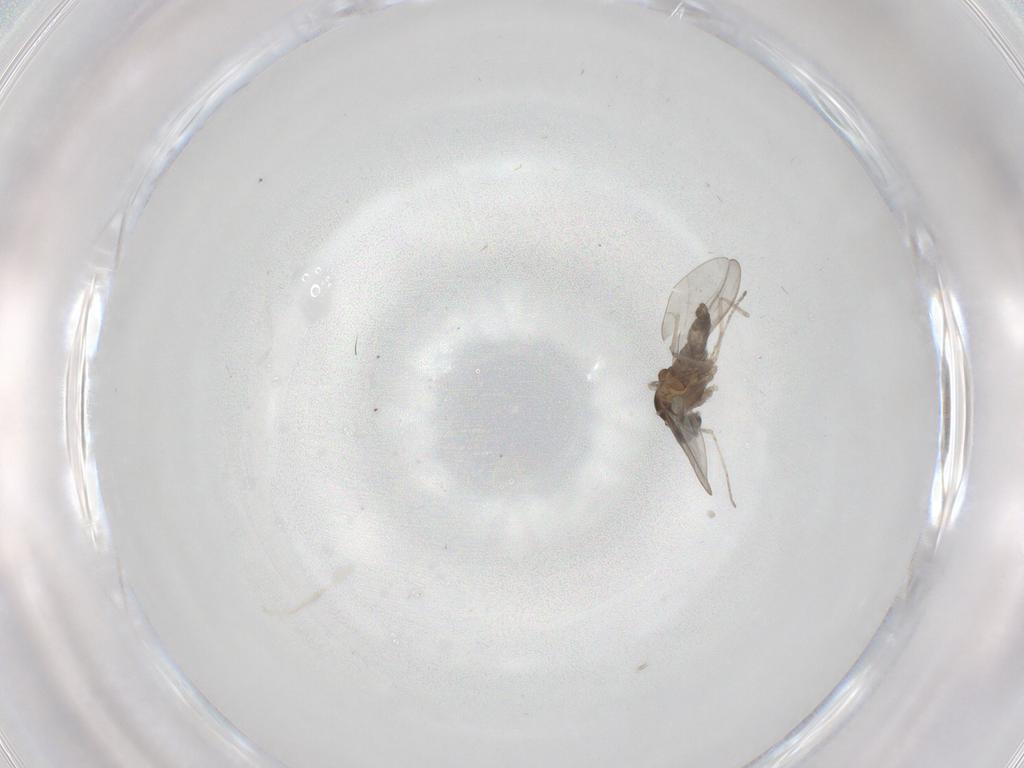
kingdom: Animalia
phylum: Arthropoda
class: Insecta
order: Diptera
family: Cecidomyiidae
